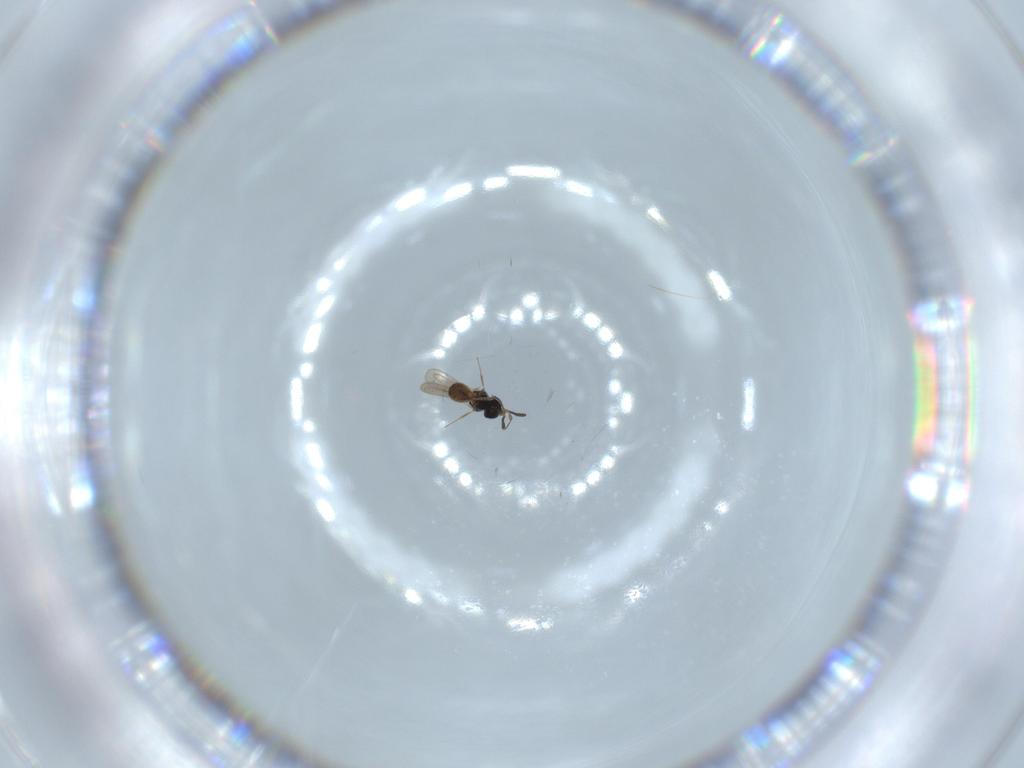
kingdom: Animalia
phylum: Arthropoda
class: Insecta
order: Hymenoptera
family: Scelionidae
